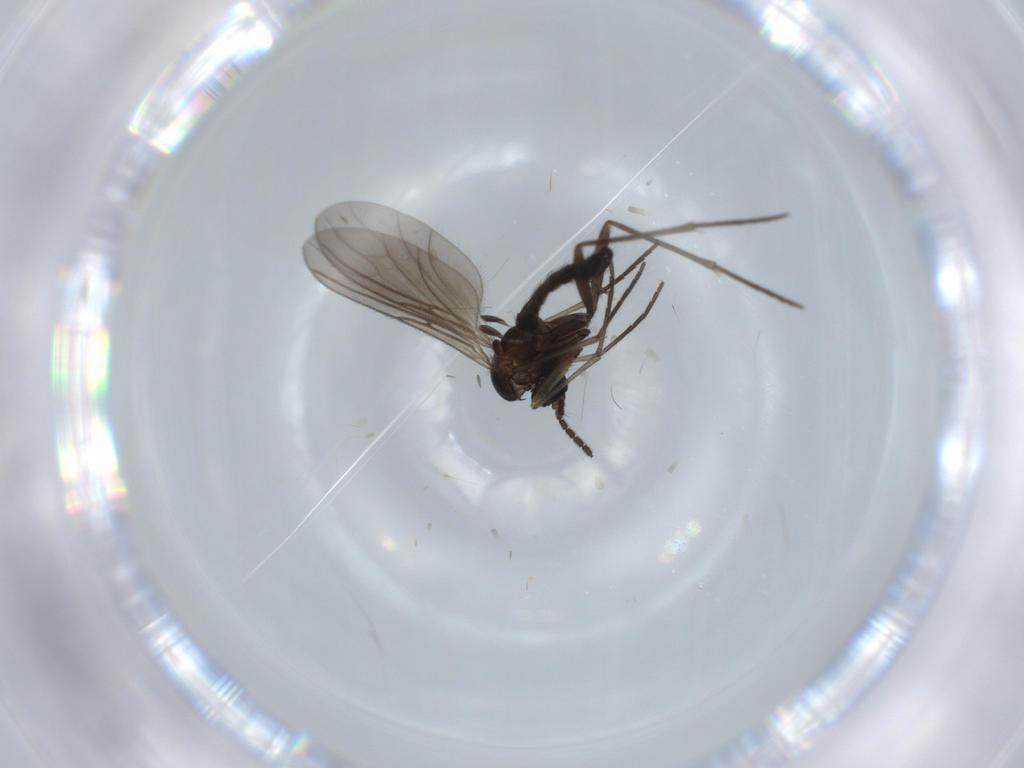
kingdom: Animalia
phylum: Arthropoda
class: Insecta
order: Diptera
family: Sciaridae
